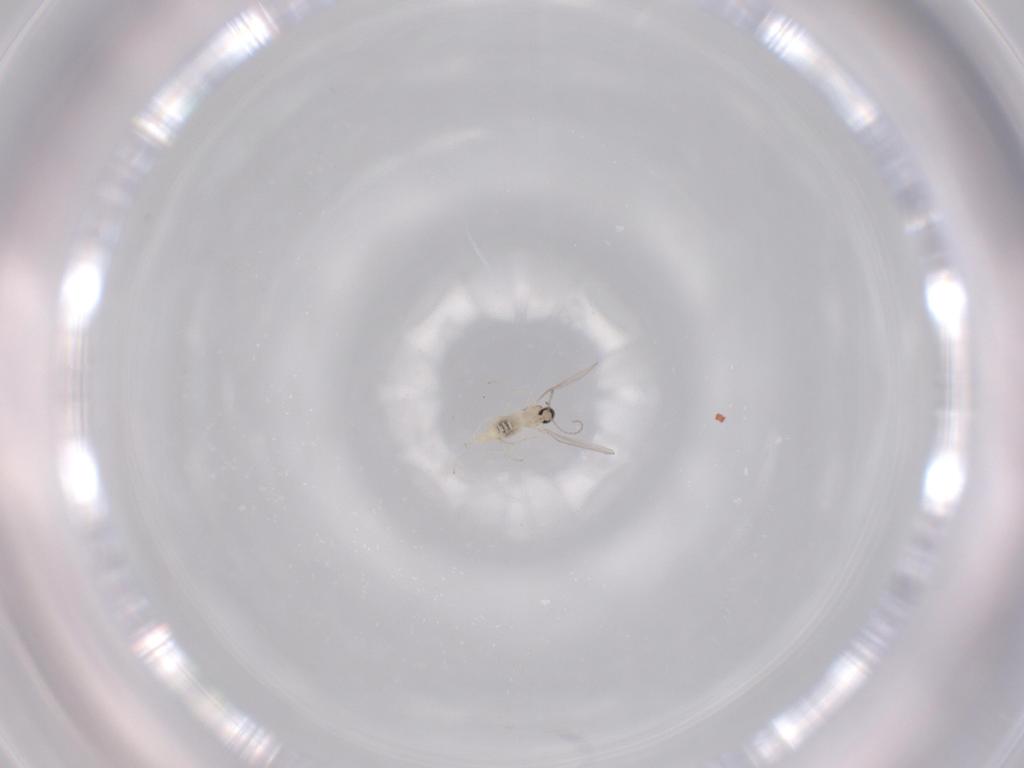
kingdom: Animalia
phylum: Arthropoda
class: Insecta
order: Diptera
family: Cecidomyiidae
